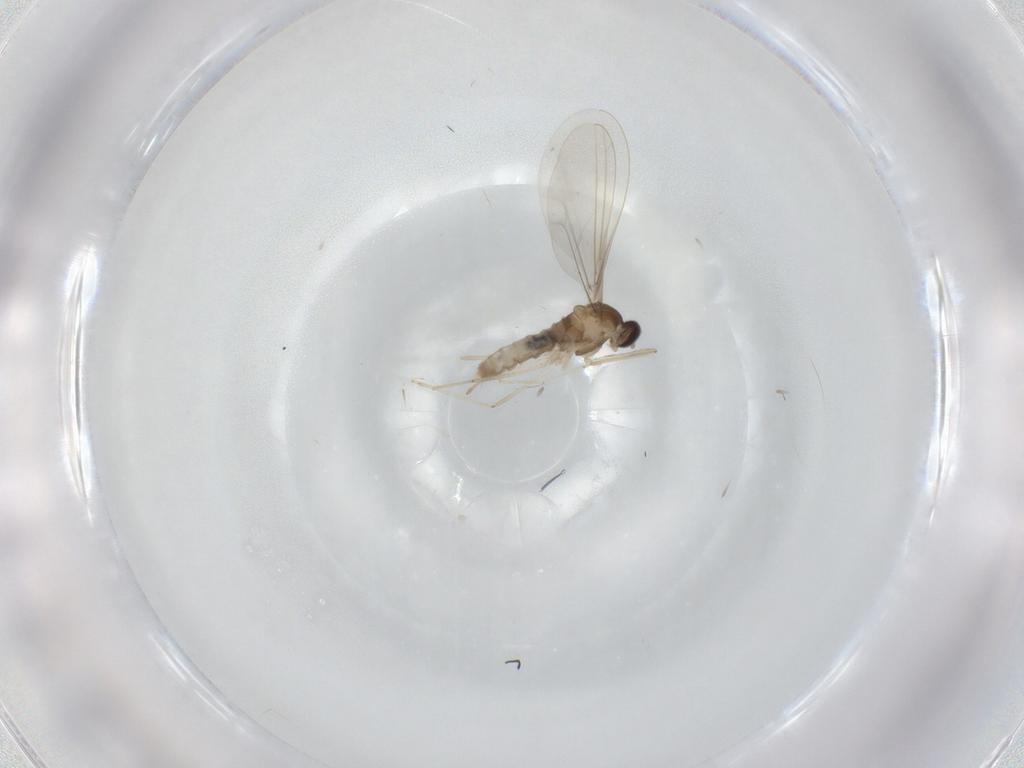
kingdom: Animalia
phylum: Arthropoda
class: Insecta
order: Diptera
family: Cecidomyiidae
